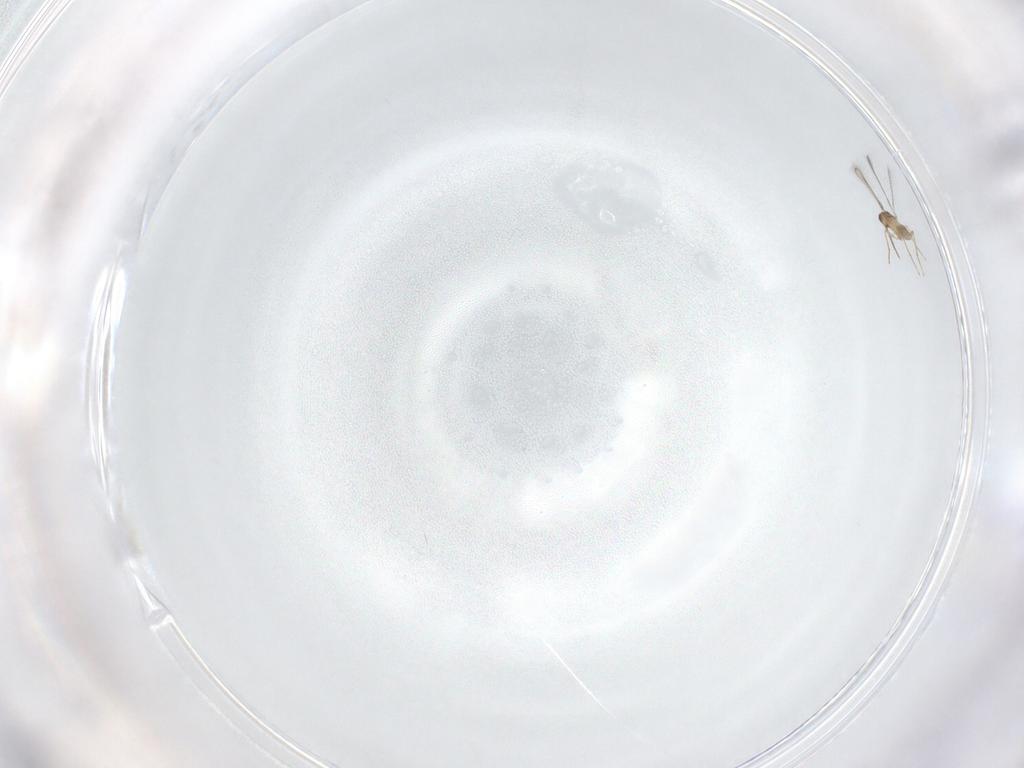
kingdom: Animalia
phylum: Arthropoda
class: Insecta
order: Hymenoptera
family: Mymaridae
